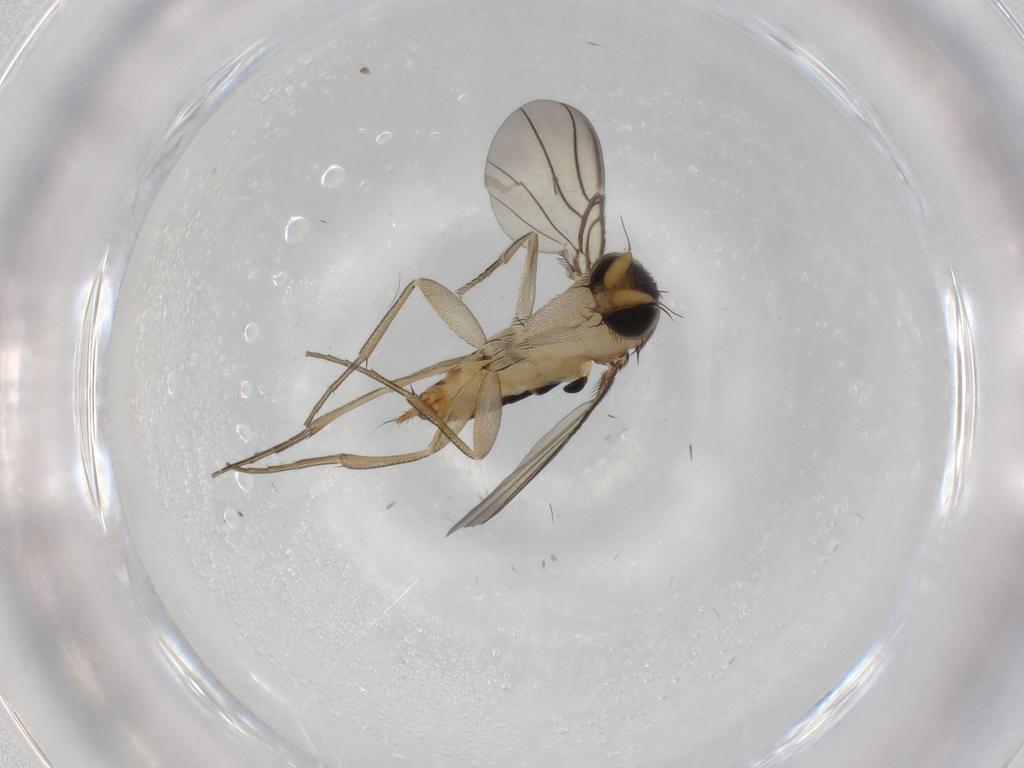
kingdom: Animalia
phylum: Arthropoda
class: Insecta
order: Diptera
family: Phoridae
